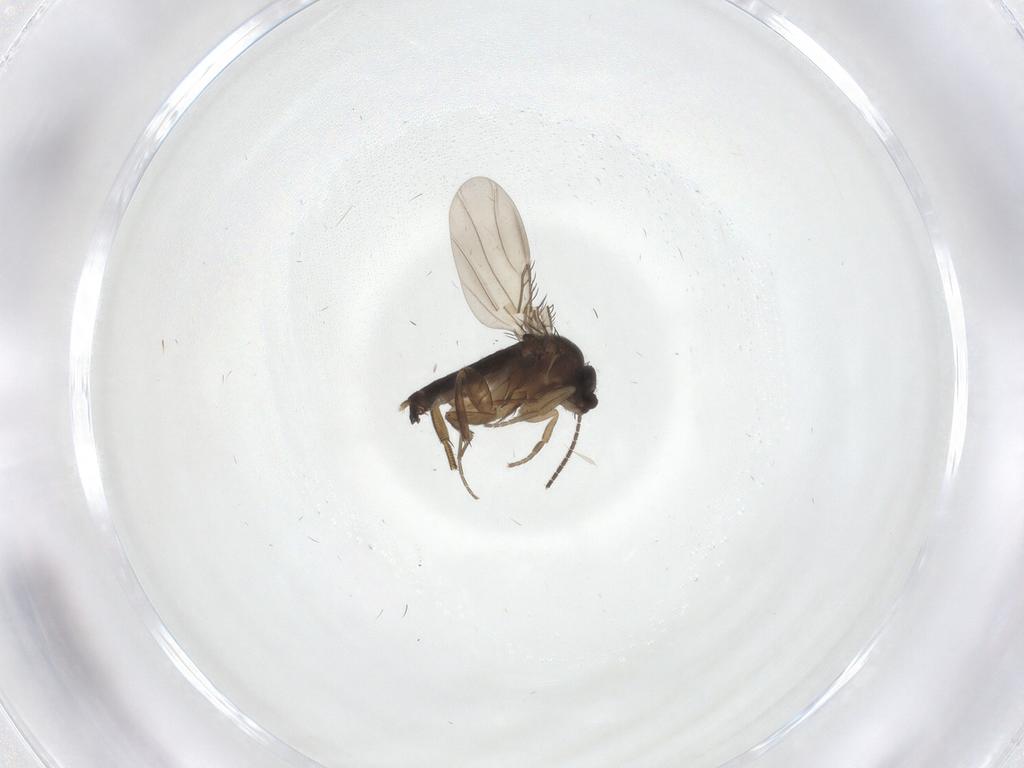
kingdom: Animalia
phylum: Arthropoda
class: Insecta
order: Diptera
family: Phoridae
